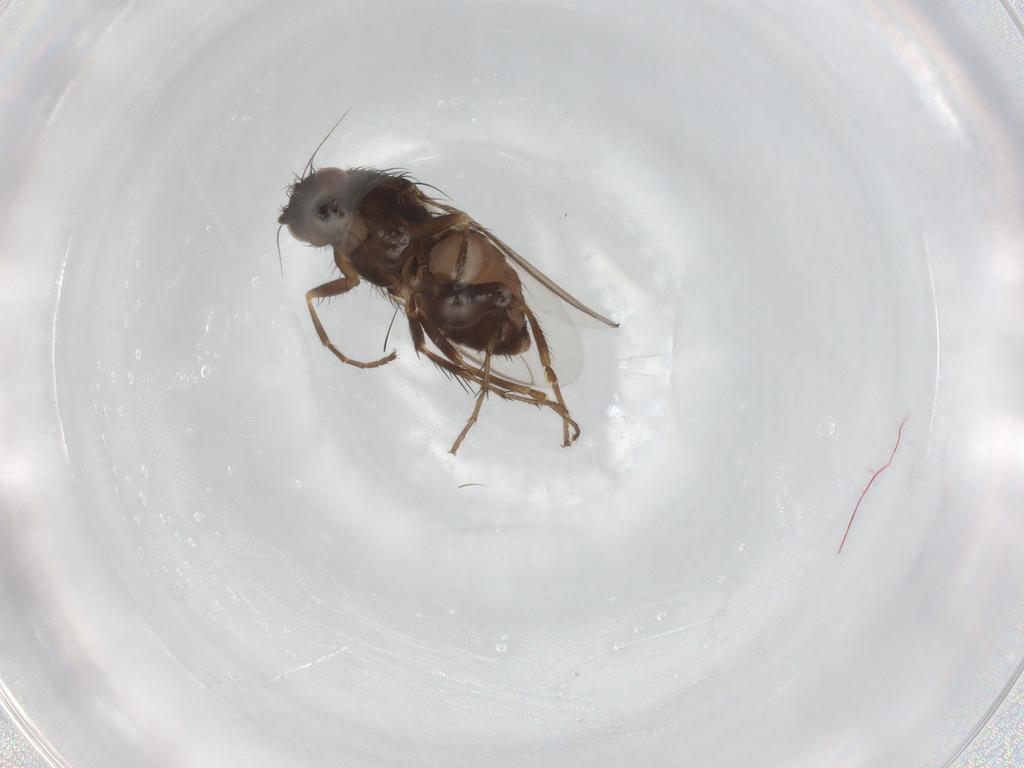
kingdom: Animalia
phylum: Arthropoda
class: Insecta
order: Diptera
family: Sphaeroceridae
